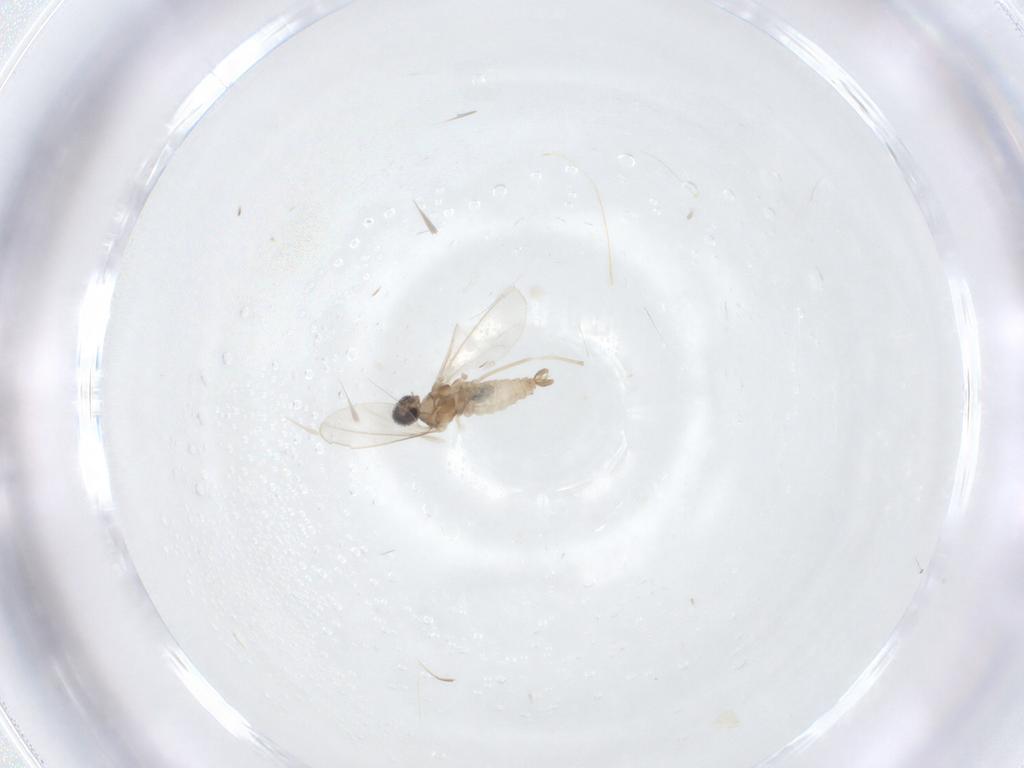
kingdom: Animalia
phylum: Arthropoda
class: Insecta
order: Diptera
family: Cecidomyiidae
